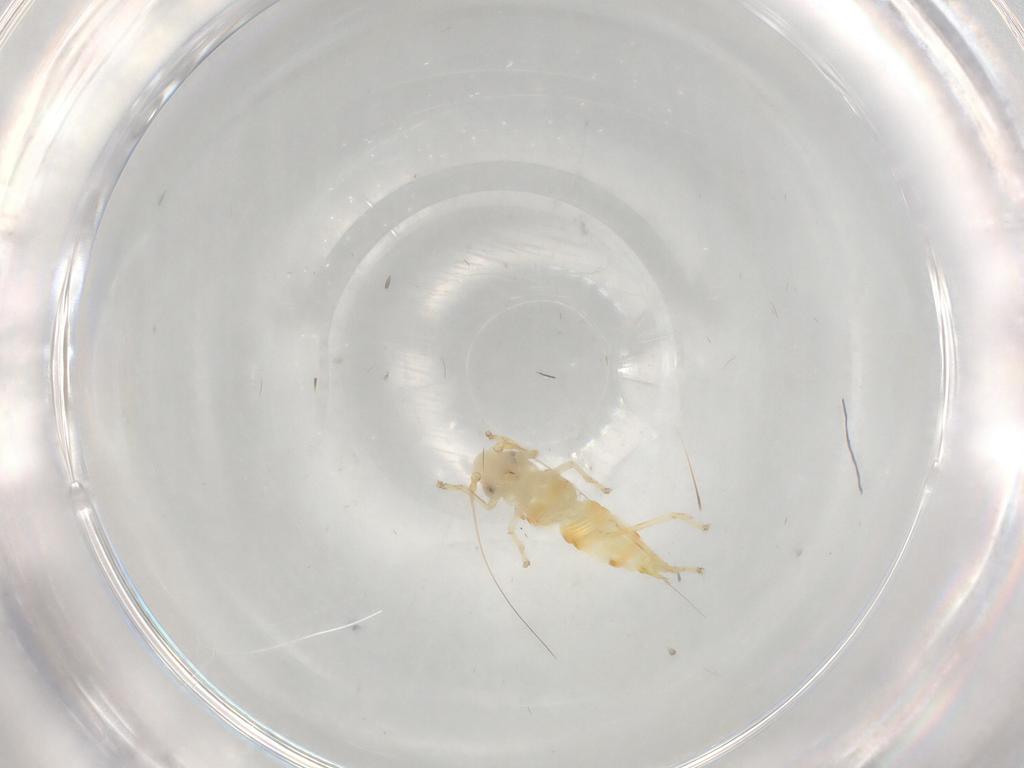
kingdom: Animalia
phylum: Arthropoda
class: Insecta
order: Hemiptera
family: Cicadellidae
